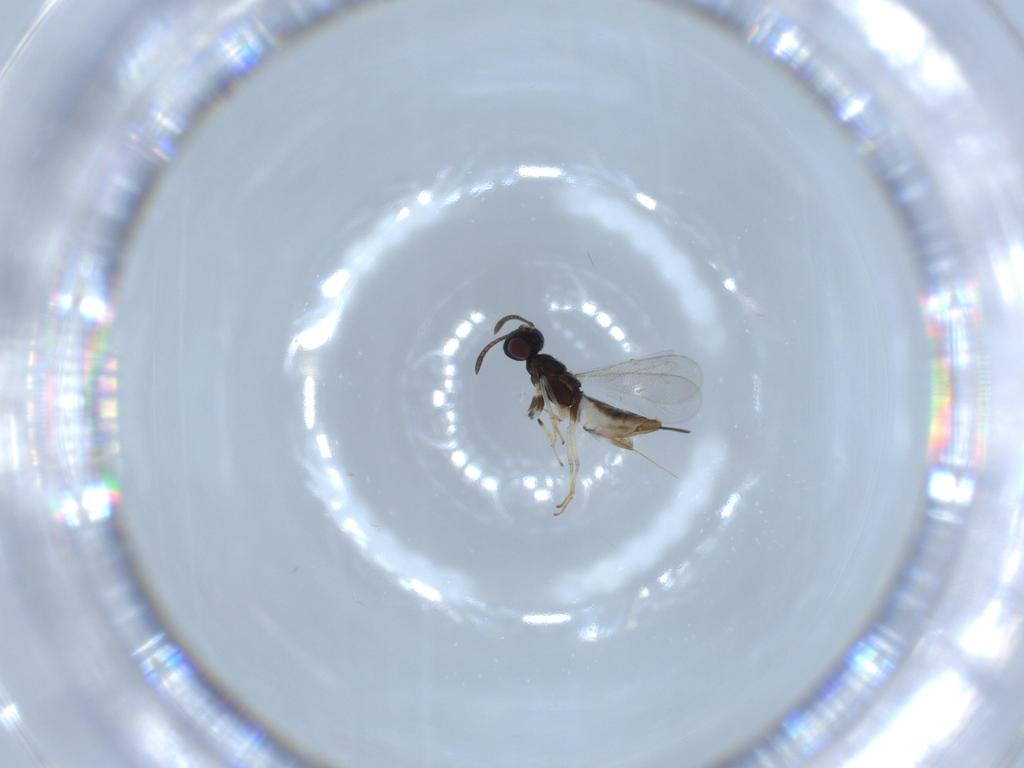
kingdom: Animalia
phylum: Arthropoda
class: Insecta
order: Hymenoptera
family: Eupelmidae
